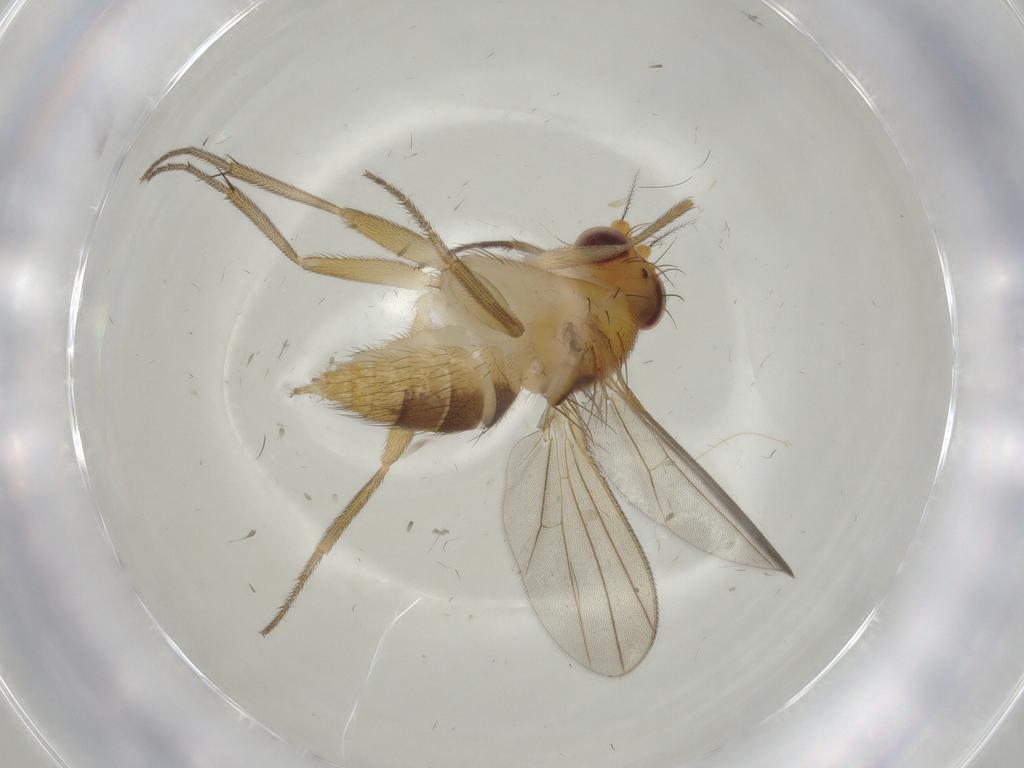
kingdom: Animalia
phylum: Arthropoda
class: Insecta
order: Diptera
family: Clusiidae
